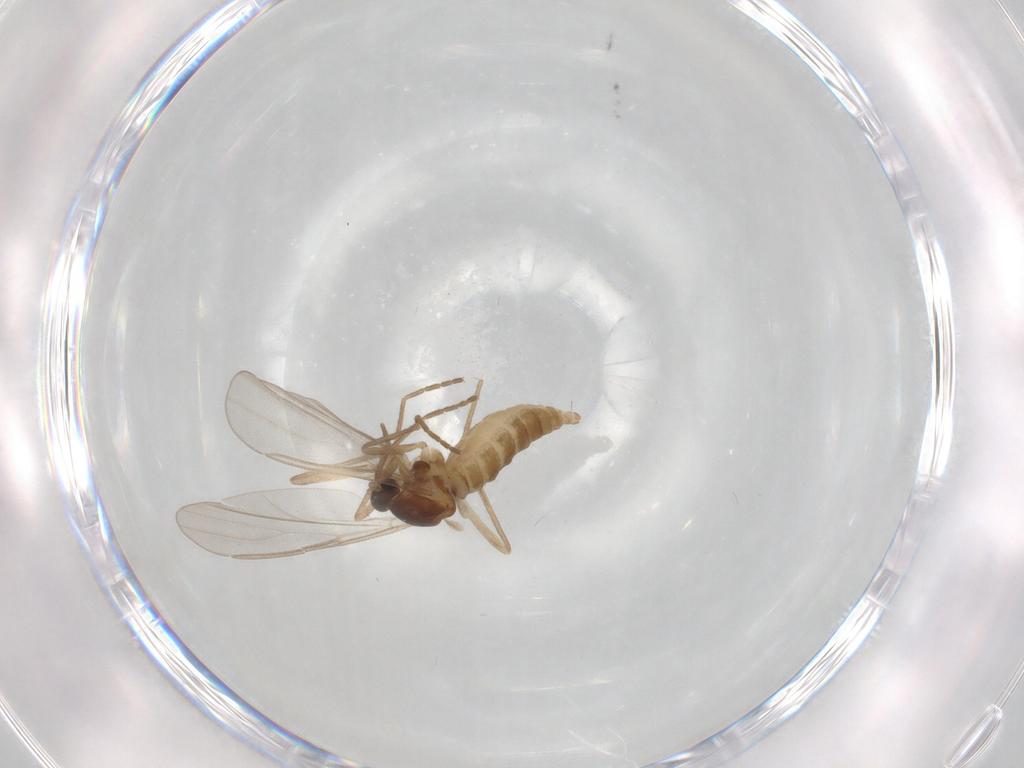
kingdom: Animalia
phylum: Arthropoda
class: Insecta
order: Diptera
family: Cecidomyiidae
